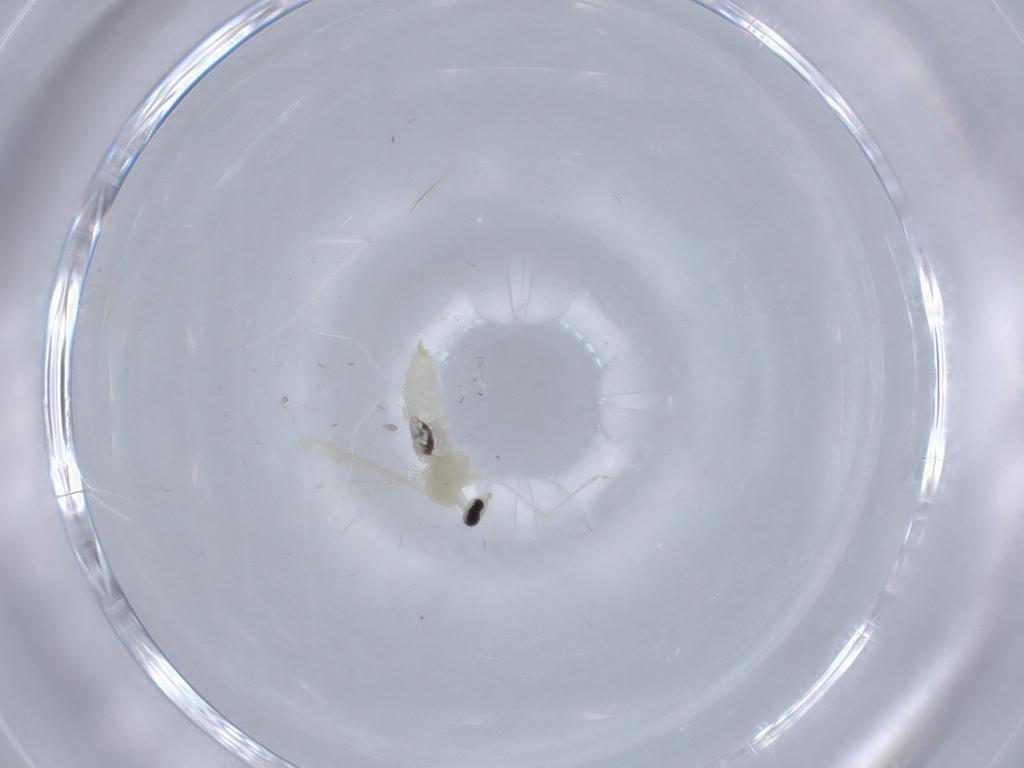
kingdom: Animalia
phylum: Arthropoda
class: Insecta
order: Diptera
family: Cecidomyiidae
